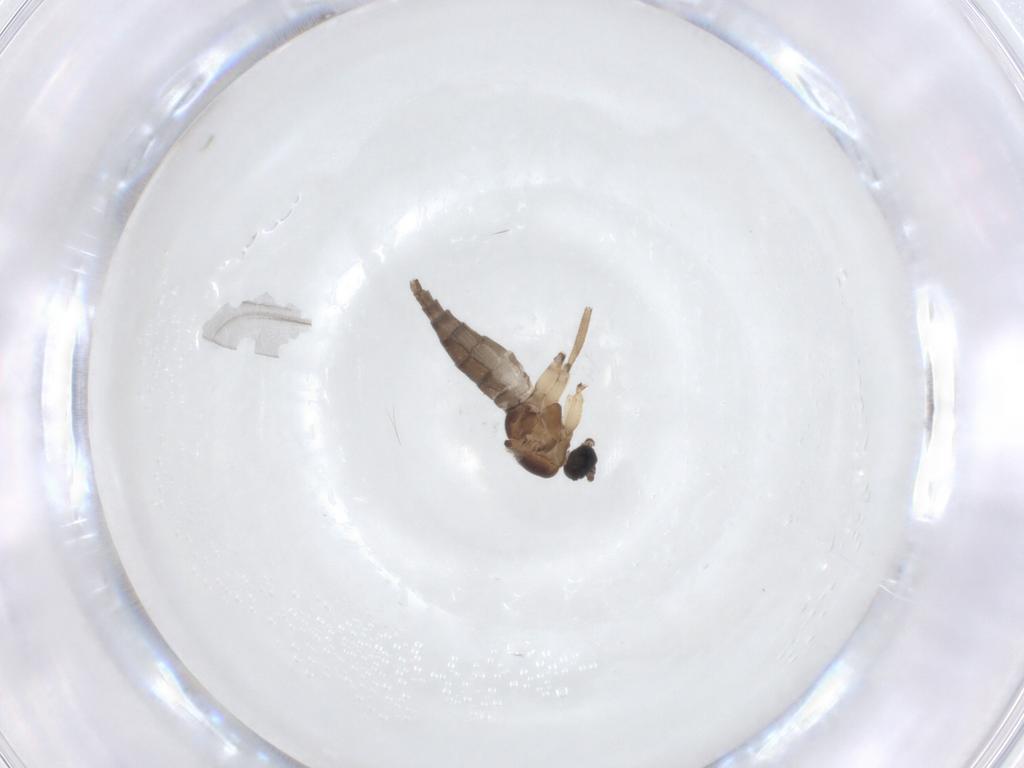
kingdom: Animalia
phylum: Arthropoda
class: Insecta
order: Diptera
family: Sciaridae
